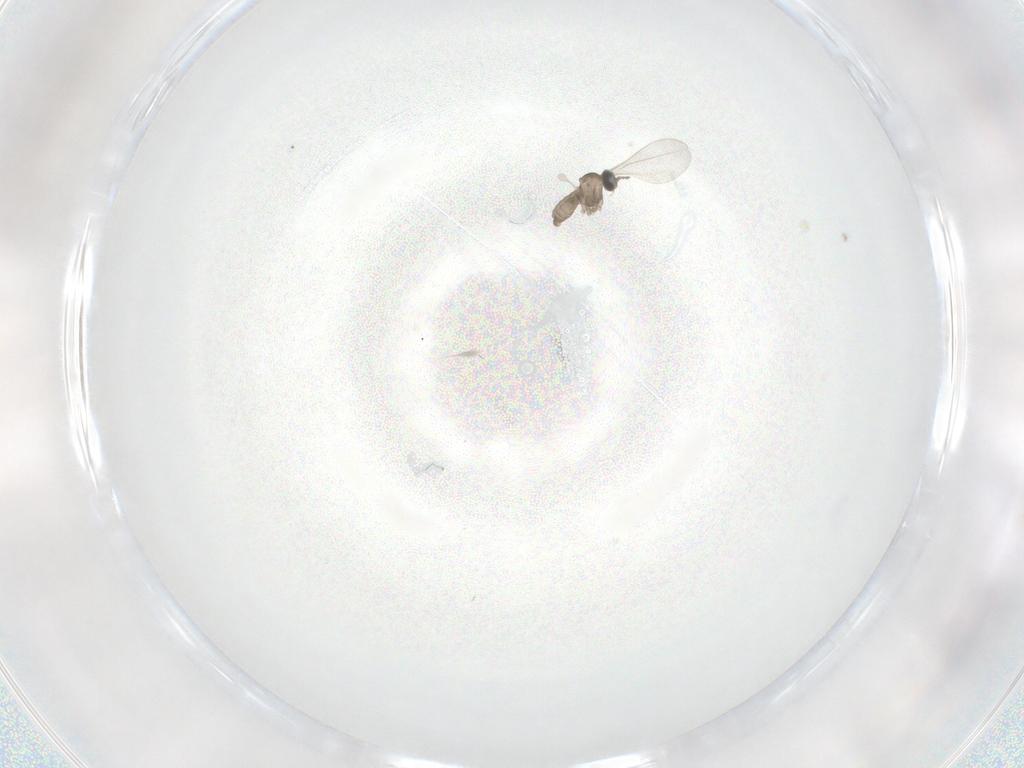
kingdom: Animalia
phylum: Arthropoda
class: Insecta
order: Diptera
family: Cecidomyiidae
